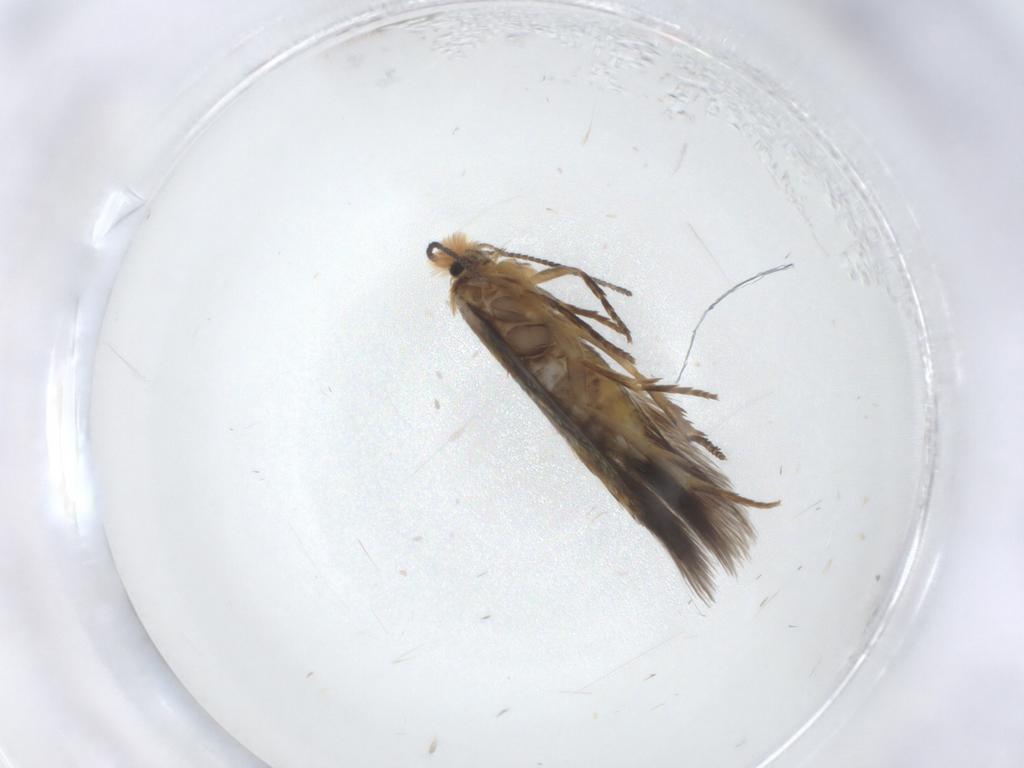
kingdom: Animalia
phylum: Arthropoda
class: Insecta
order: Lepidoptera
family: Nepticulidae
